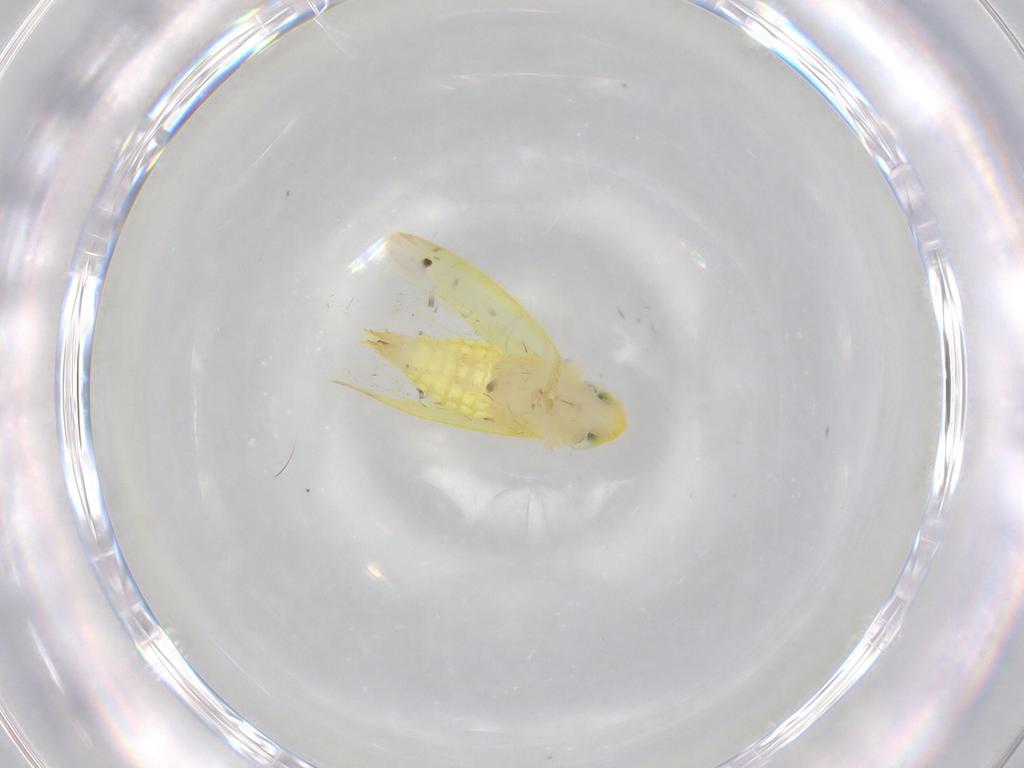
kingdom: Animalia
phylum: Arthropoda
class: Insecta
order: Hemiptera
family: Cicadellidae
